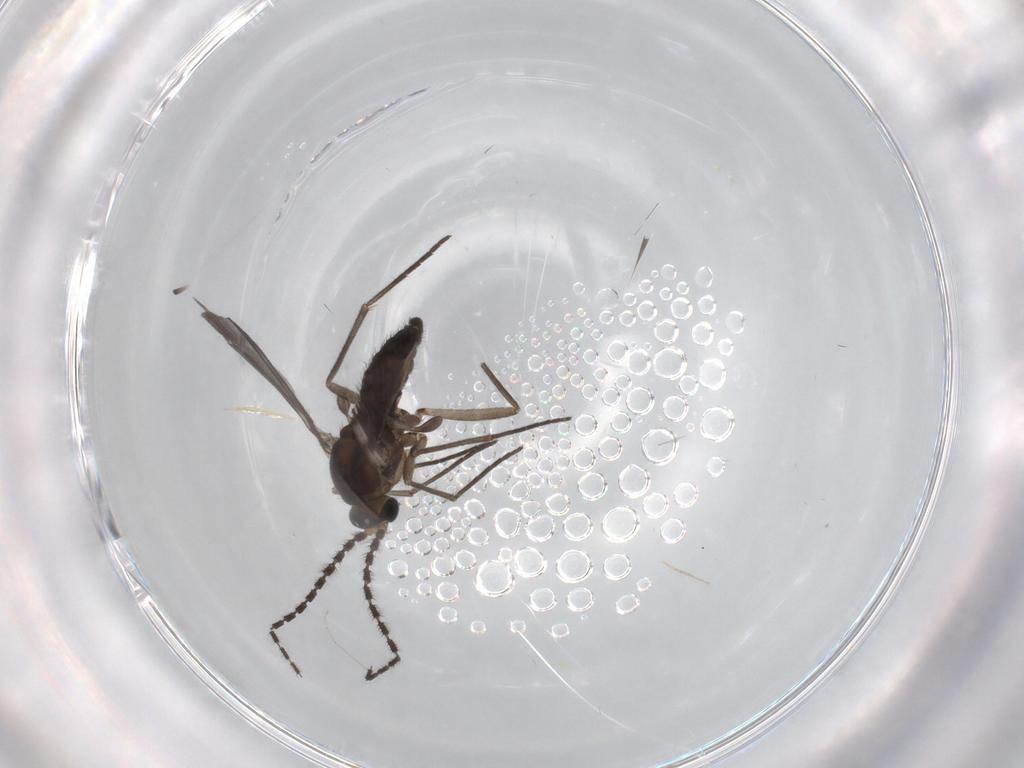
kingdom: Animalia
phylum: Arthropoda
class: Insecta
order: Diptera
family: Sciaridae
